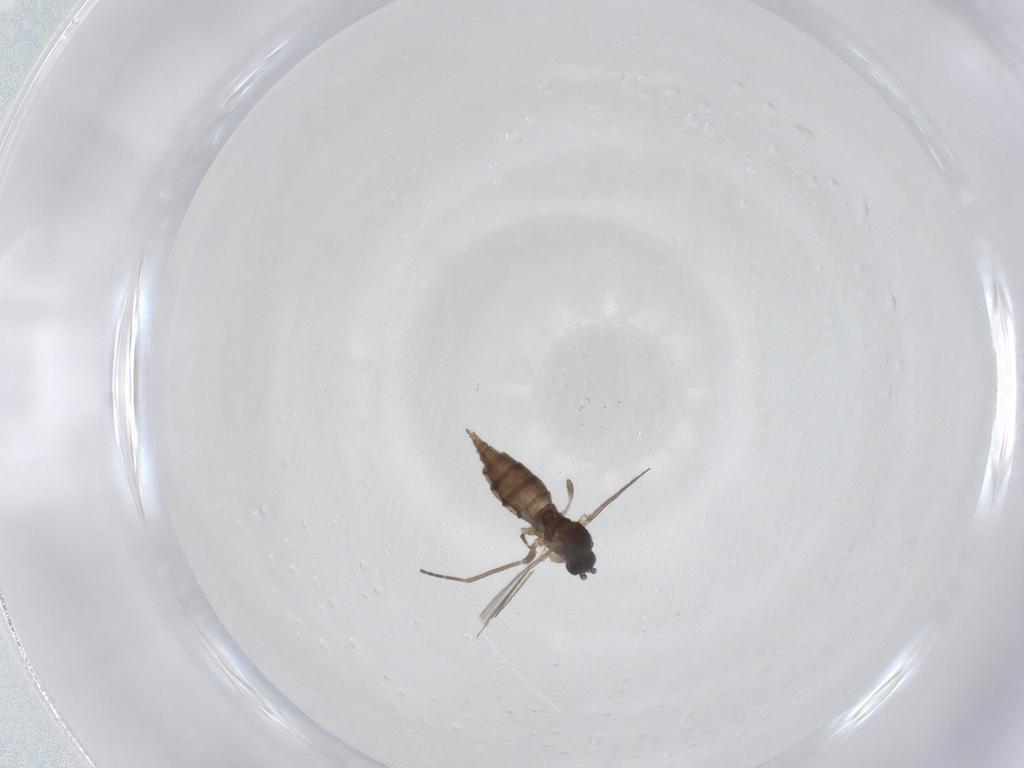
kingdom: Animalia
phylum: Arthropoda
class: Insecta
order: Diptera
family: Sciaridae
